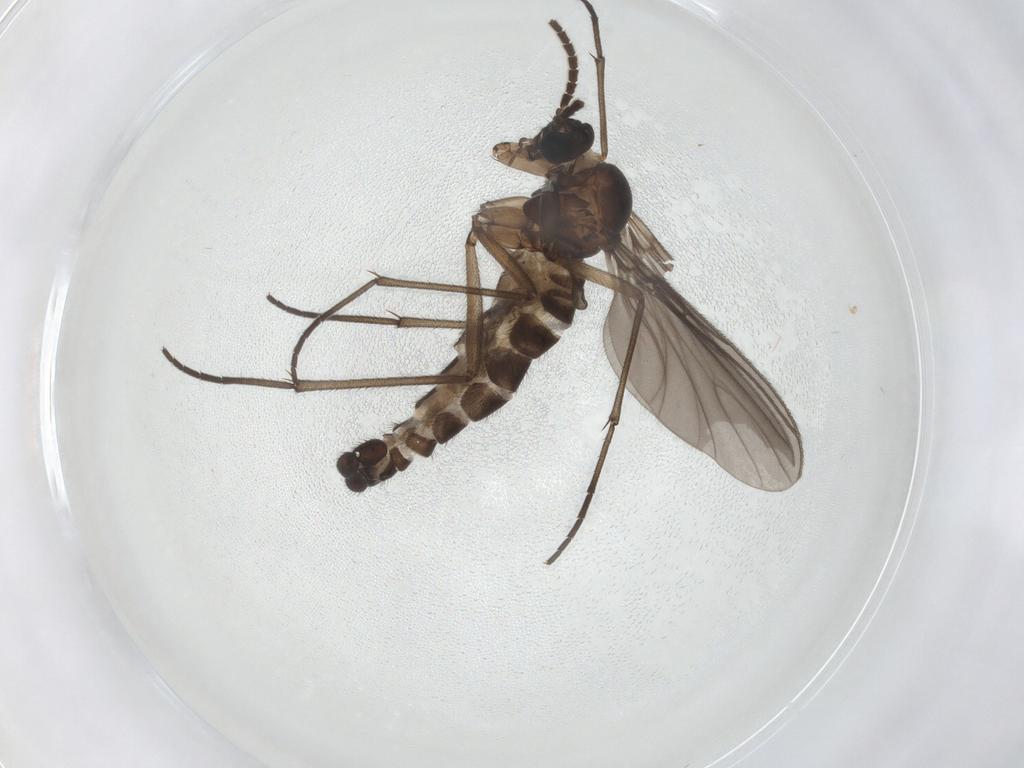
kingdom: Animalia
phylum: Arthropoda
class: Insecta
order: Diptera
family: Sciaridae
